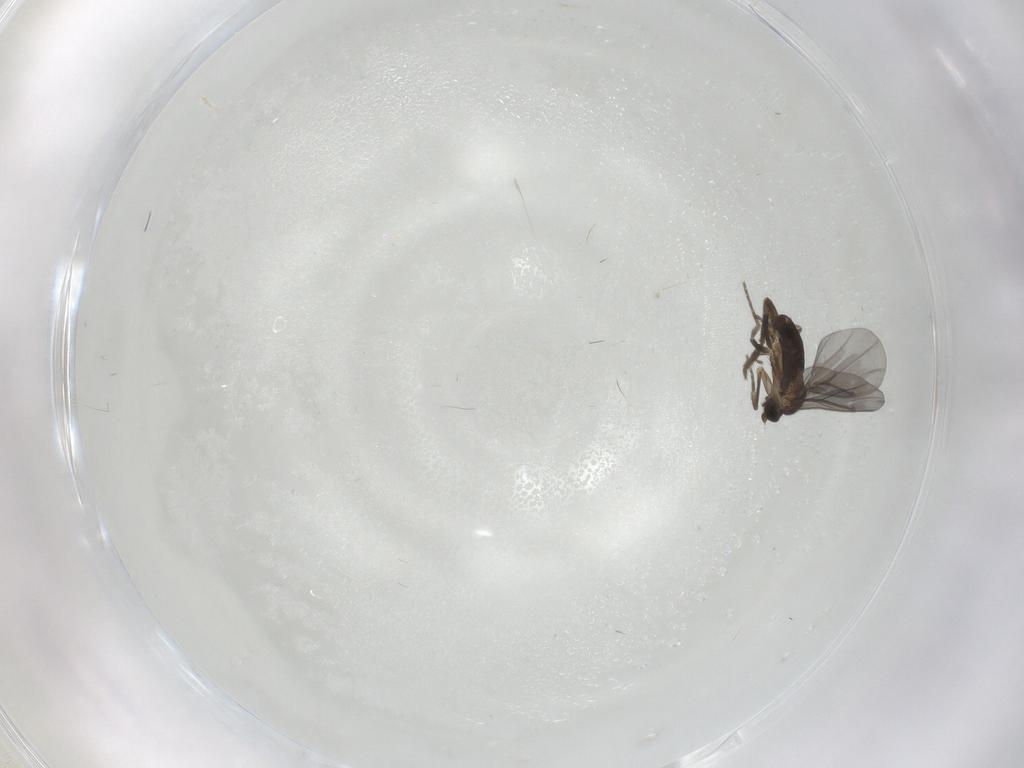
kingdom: Animalia
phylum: Arthropoda
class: Insecta
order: Diptera
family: Phoridae
